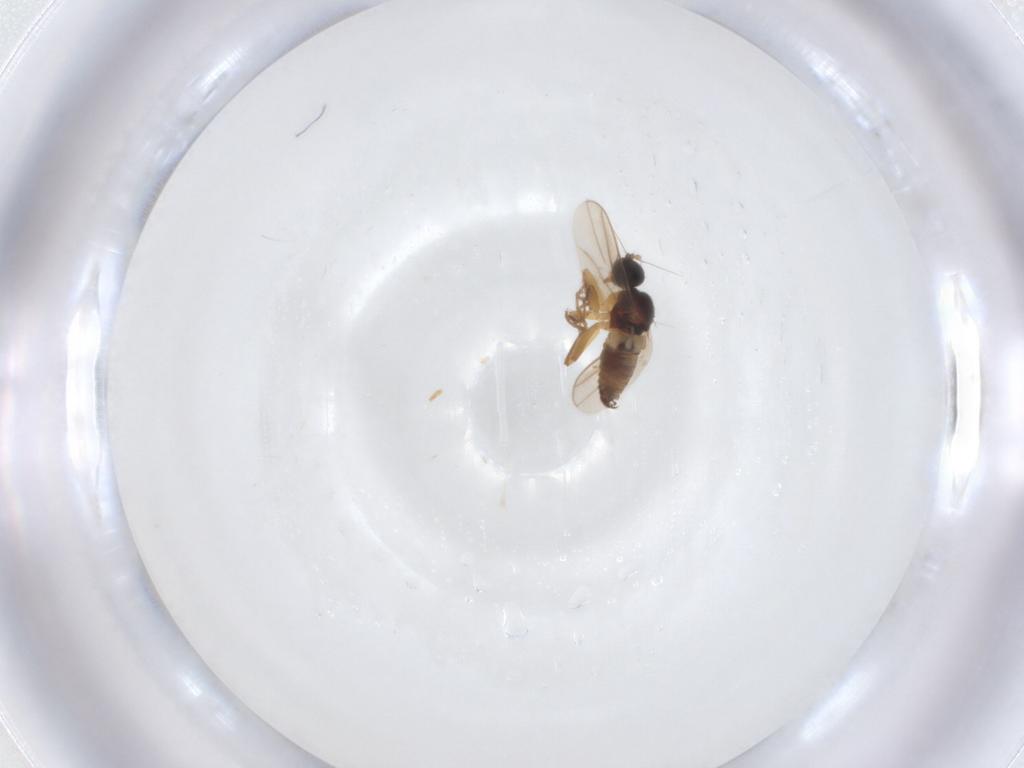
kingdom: Animalia
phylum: Arthropoda
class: Insecta
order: Diptera
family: Hybotidae
